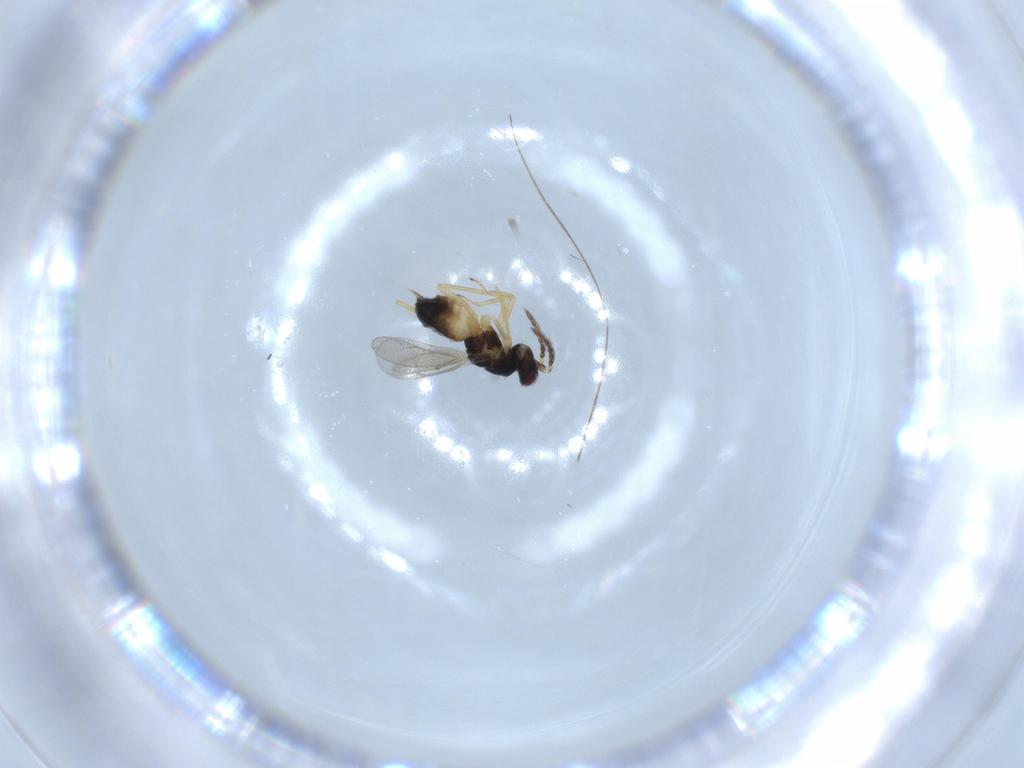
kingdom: Animalia
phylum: Arthropoda
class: Insecta
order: Hymenoptera
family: Eulophidae
